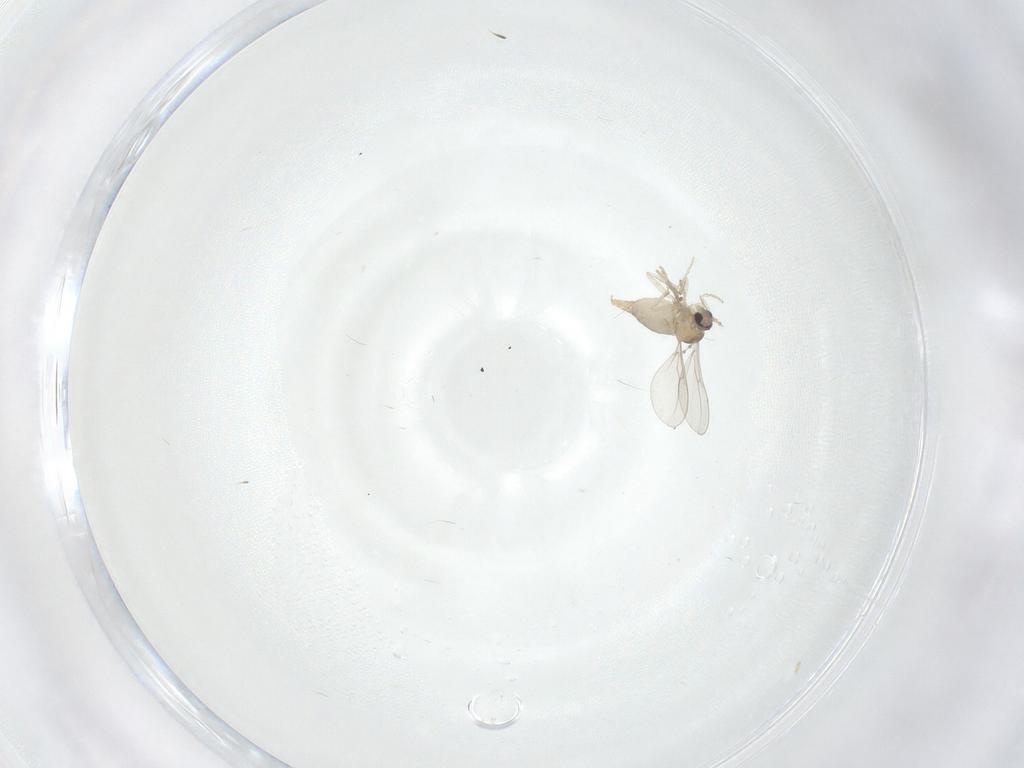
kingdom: Animalia
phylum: Arthropoda
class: Insecta
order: Diptera
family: Cecidomyiidae
